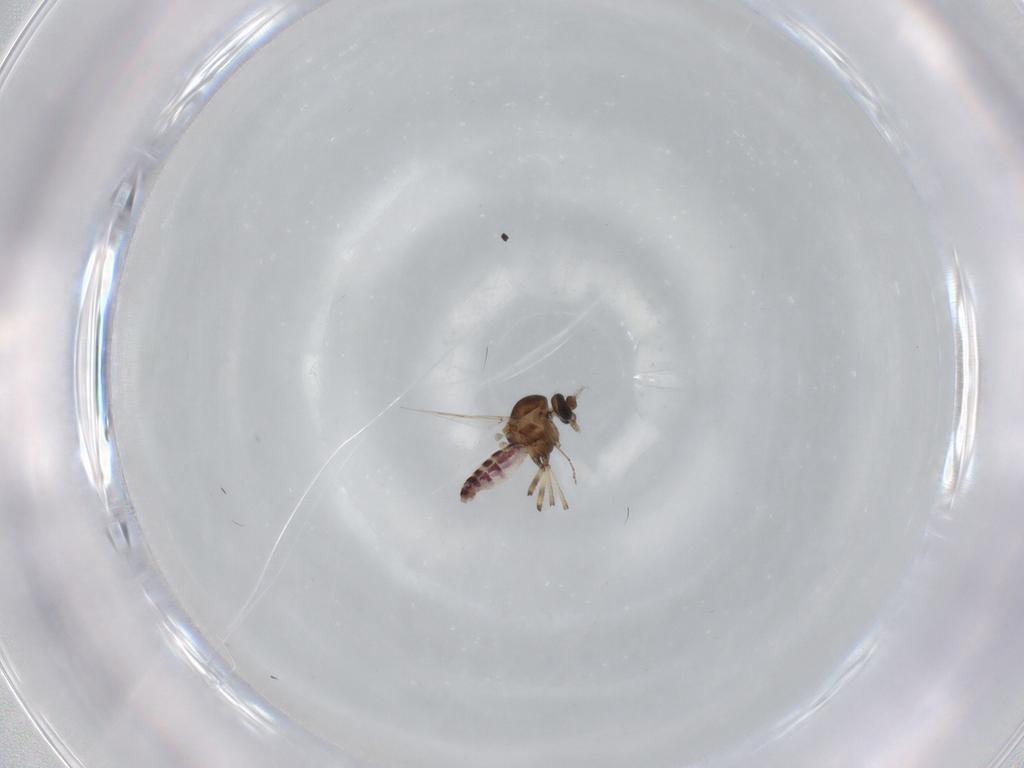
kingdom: Animalia
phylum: Arthropoda
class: Insecta
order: Diptera
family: Ceratopogonidae
